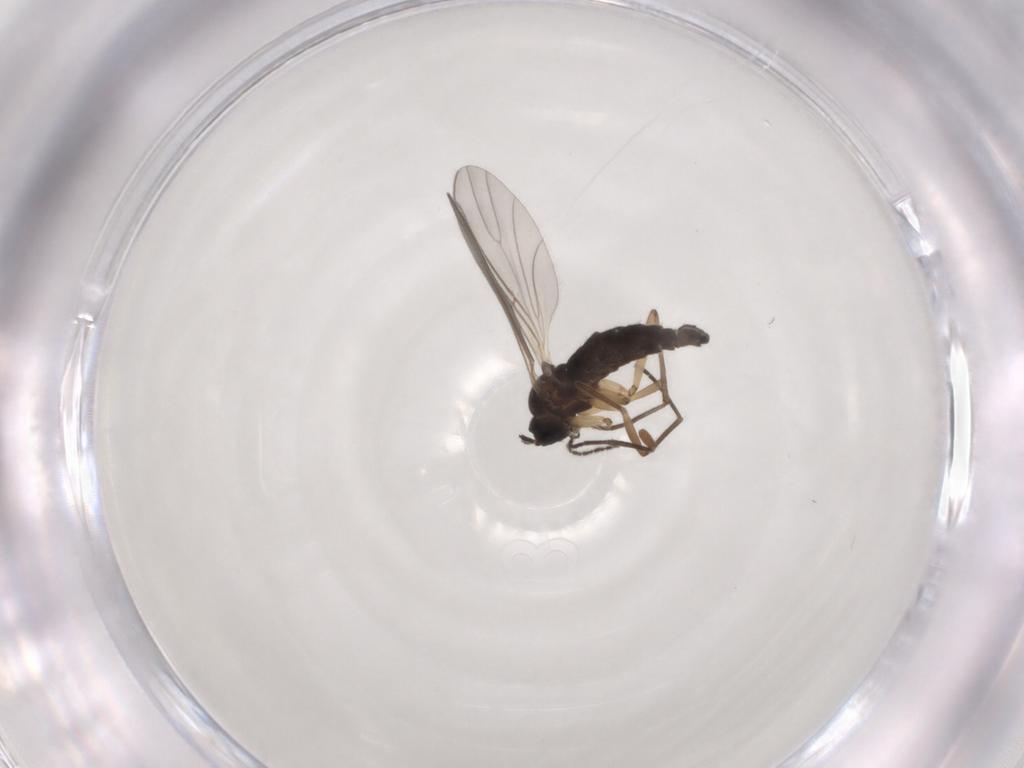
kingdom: Animalia
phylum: Arthropoda
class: Insecta
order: Diptera
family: Sciaridae
